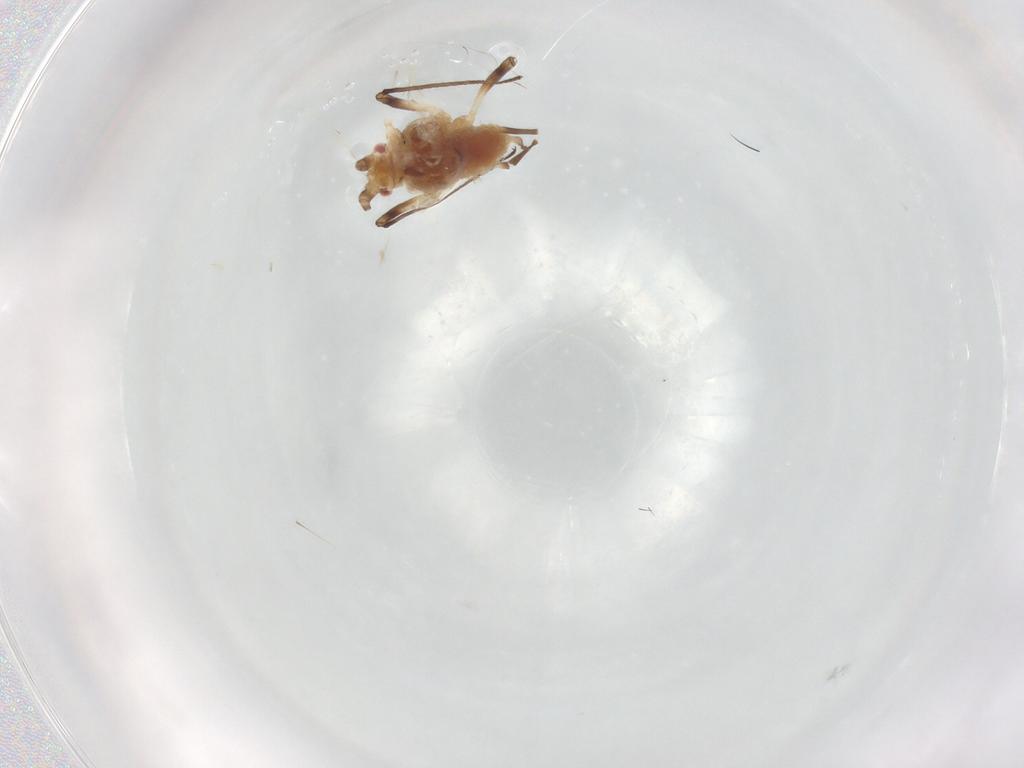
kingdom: Animalia
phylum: Arthropoda
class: Insecta
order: Hemiptera
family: Aphididae
